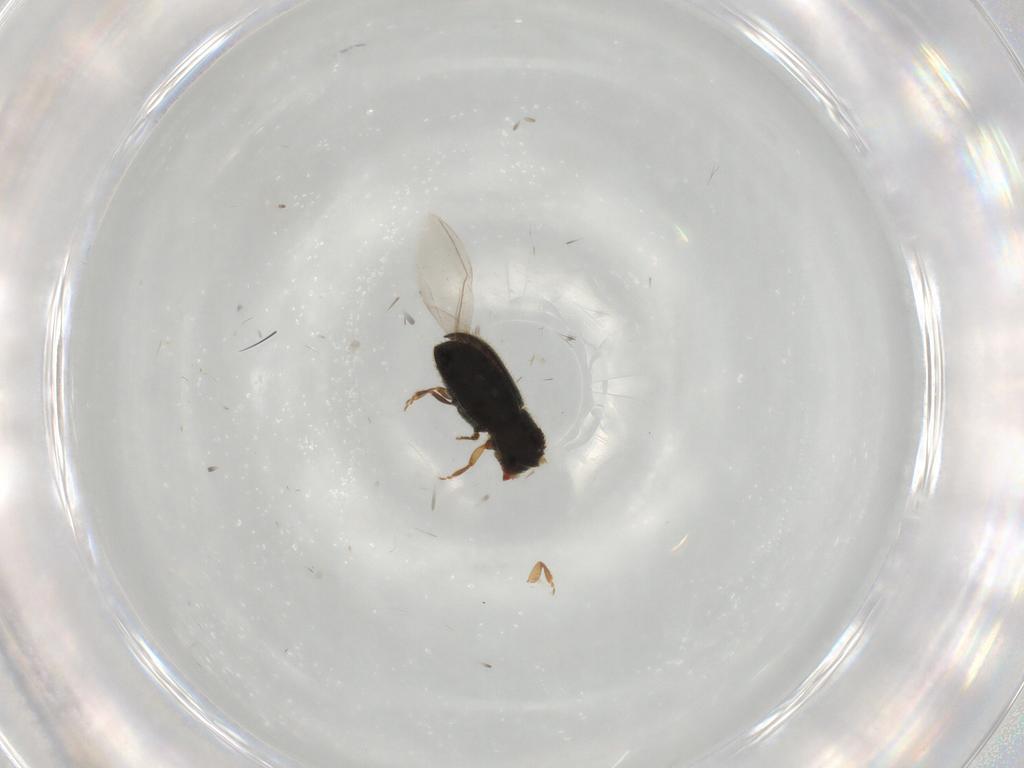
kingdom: Animalia
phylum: Arthropoda
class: Insecta
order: Coleoptera
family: Curculionidae
